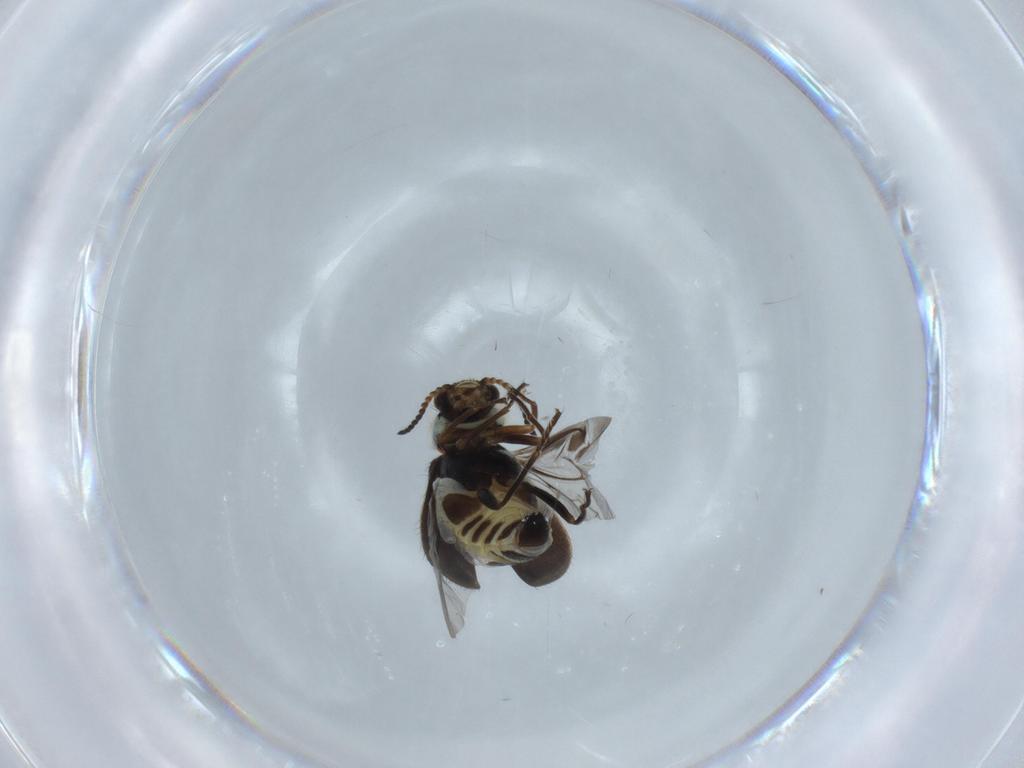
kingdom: Animalia
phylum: Arthropoda
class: Insecta
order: Coleoptera
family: Melyridae
